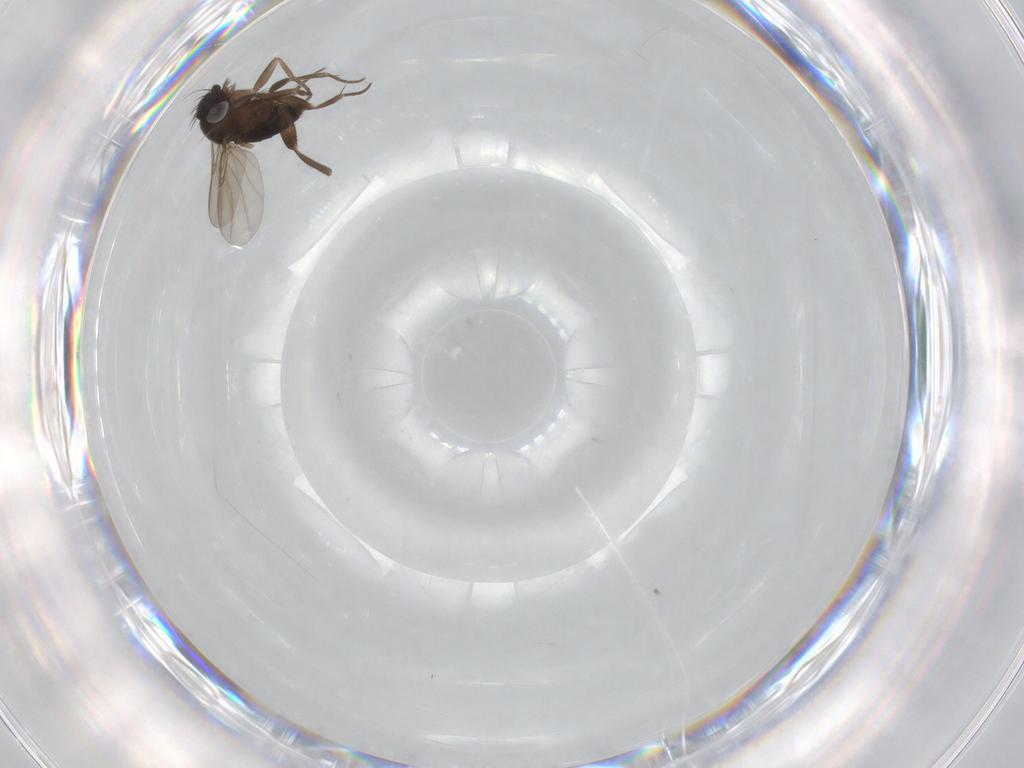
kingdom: Animalia
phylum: Arthropoda
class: Insecta
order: Diptera
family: Phoridae
